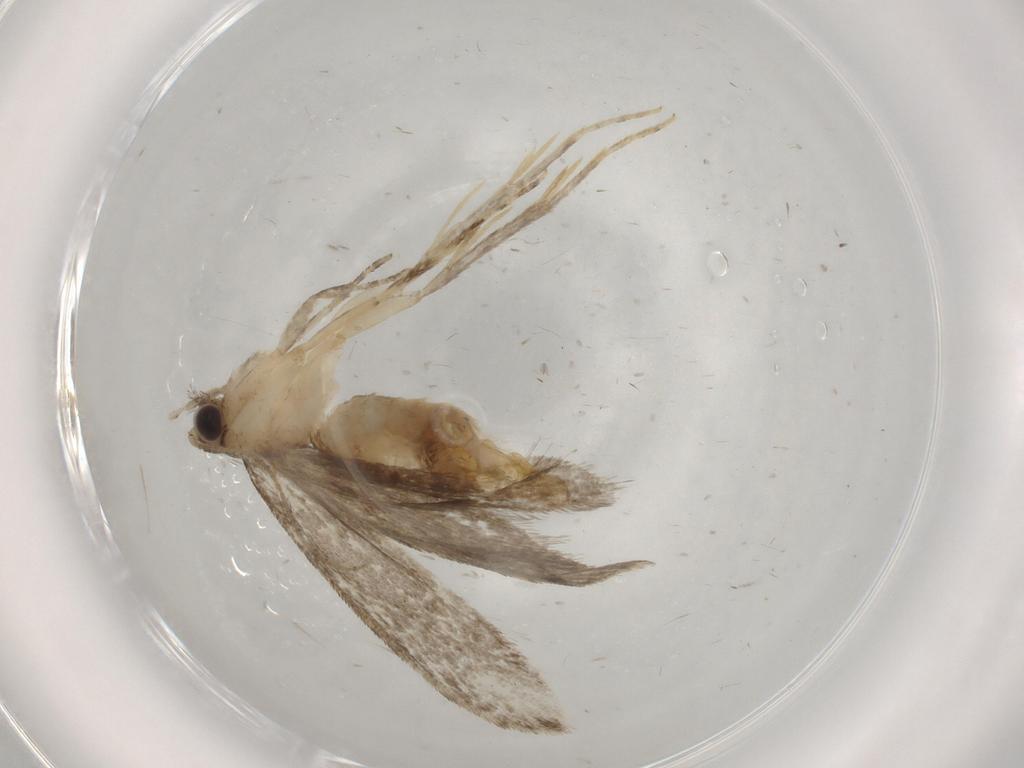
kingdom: Animalia
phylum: Arthropoda
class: Insecta
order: Lepidoptera
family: Tineidae
